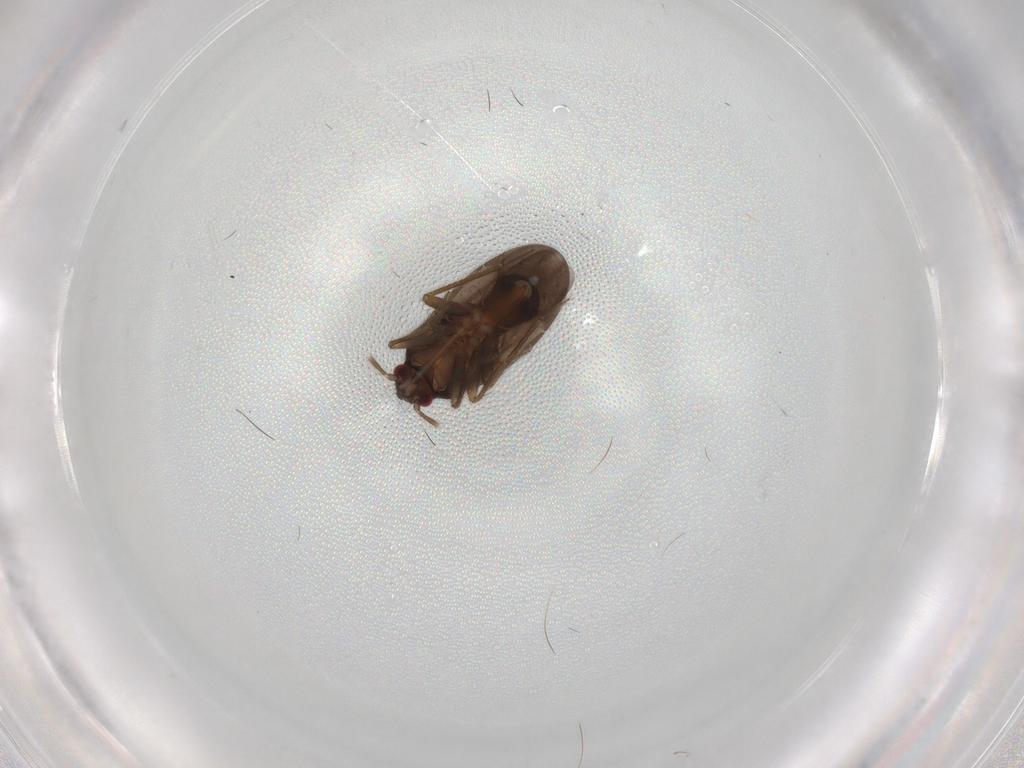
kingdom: Animalia
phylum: Arthropoda
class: Insecta
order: Hemiptera
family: Ceratocombidae
